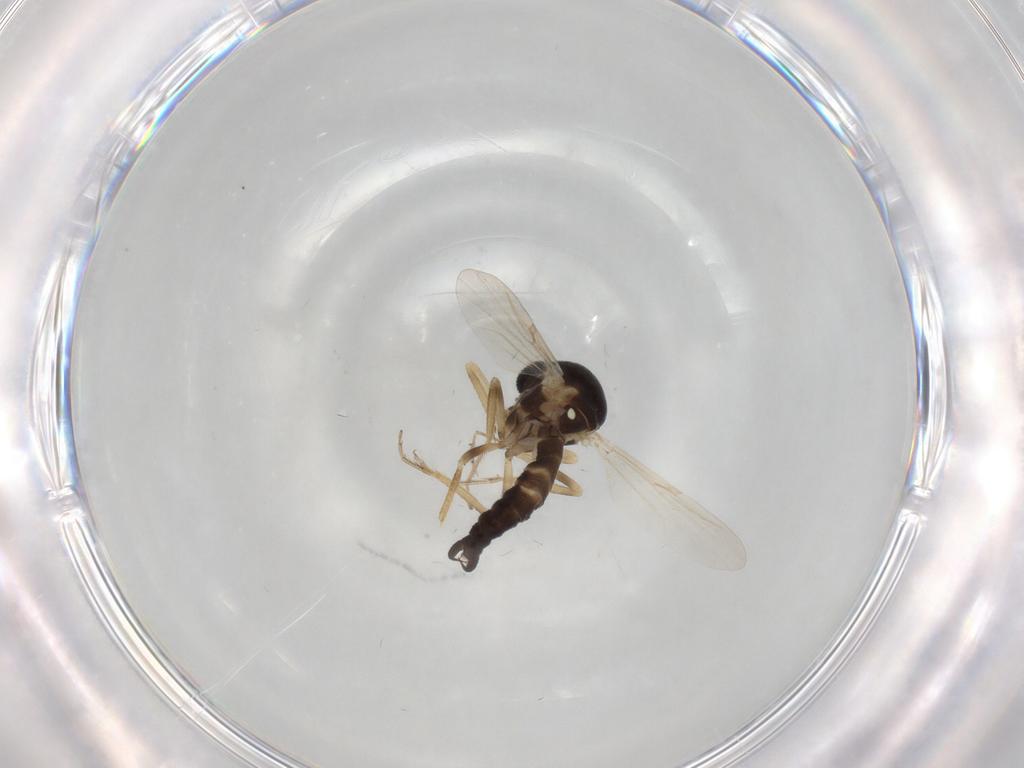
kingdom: Animalia
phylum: Arthropoda
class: Insecta
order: Diptera
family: Ceratopogonidae
